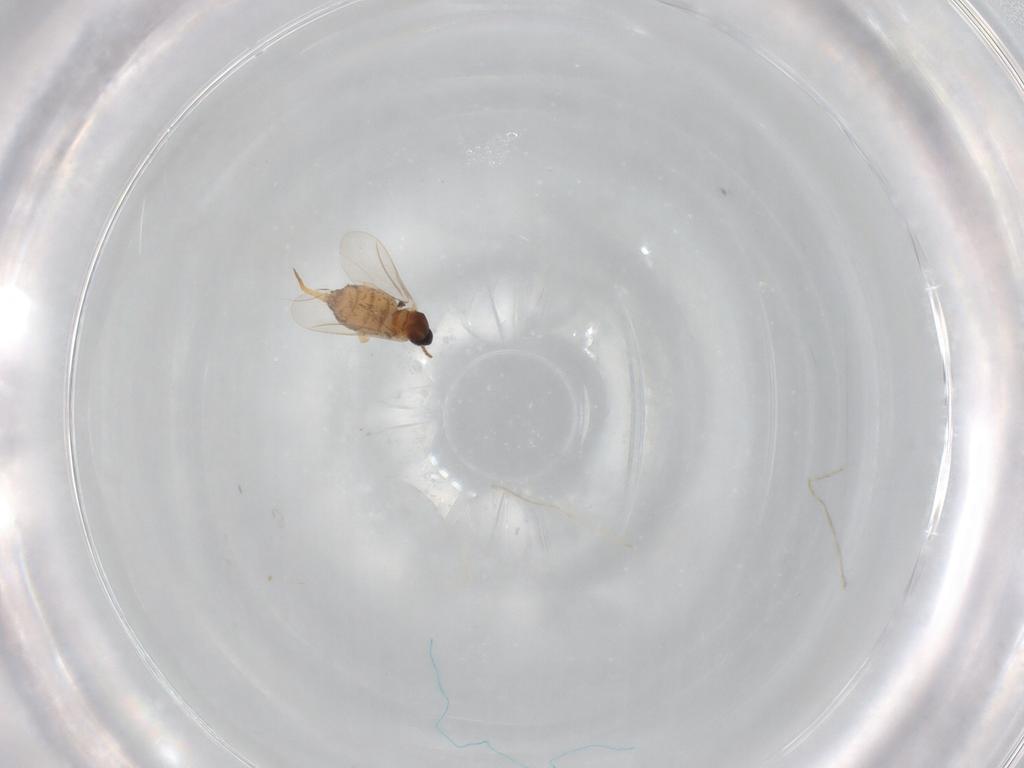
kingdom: Animalia
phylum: Arthropoda
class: Insecta
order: Diptera
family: Cecidomyiidae
